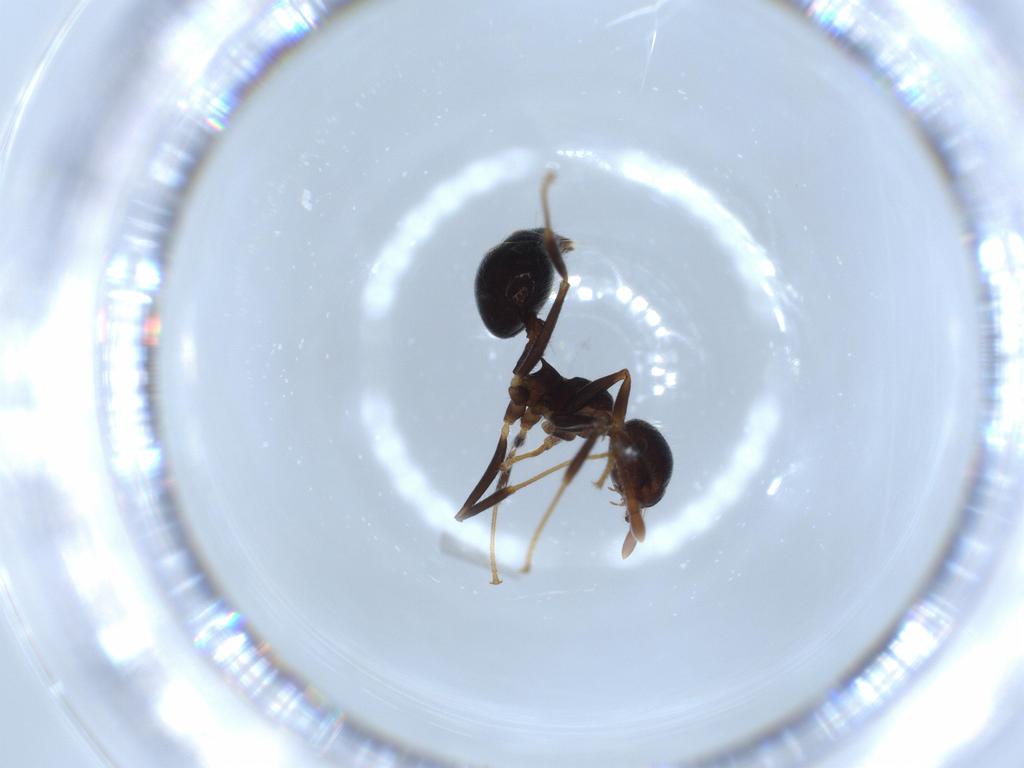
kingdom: Animalia
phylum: Arthropoda
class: Insecta
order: Hymenoptera
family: Formicidae
